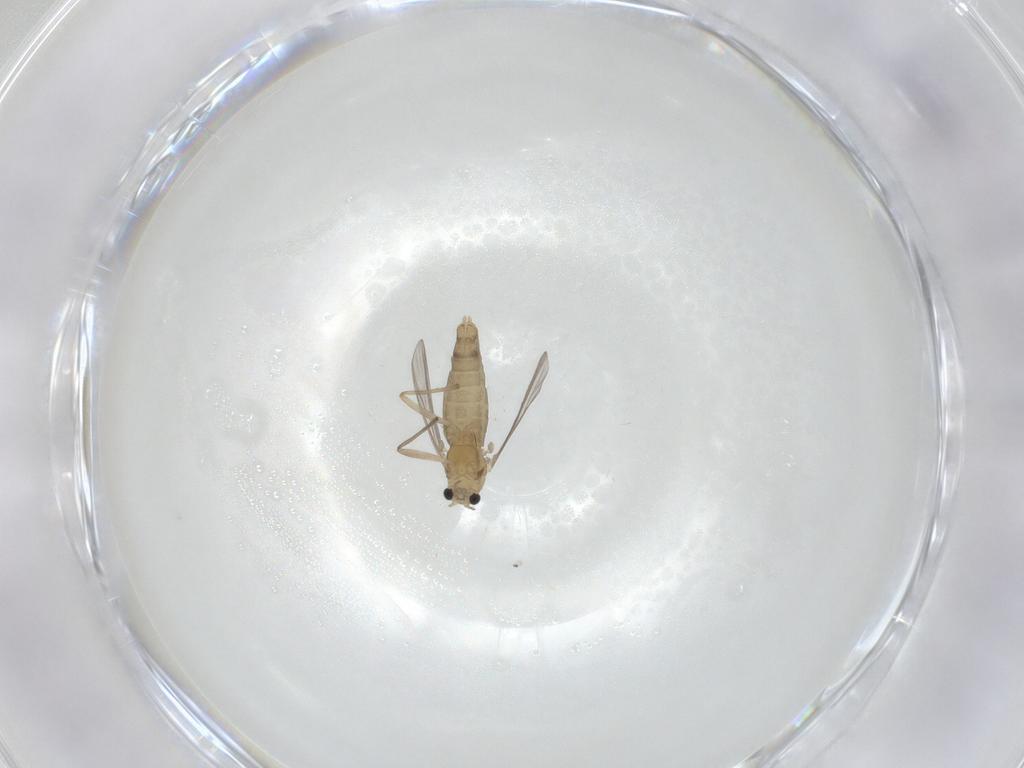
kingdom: Animalia
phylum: Arthropoda
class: Insecta
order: Diptera
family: Chironomidae
